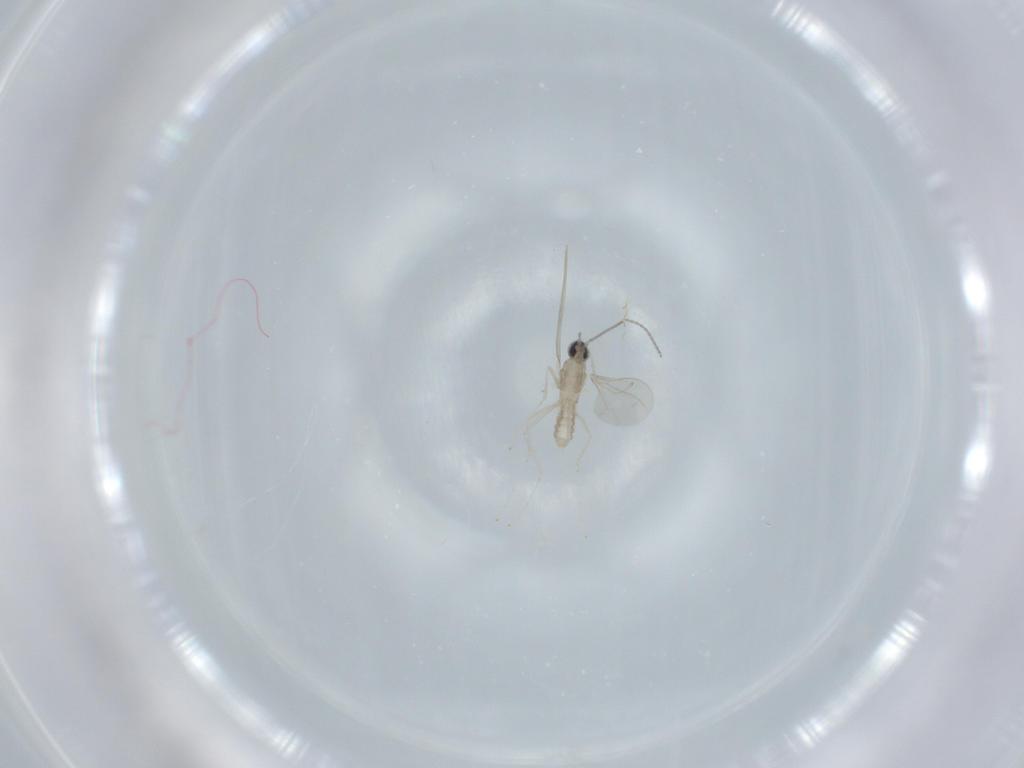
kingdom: Animalia
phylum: Arthropoda
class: Insecta
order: Diptera
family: Cecidomyiidae
